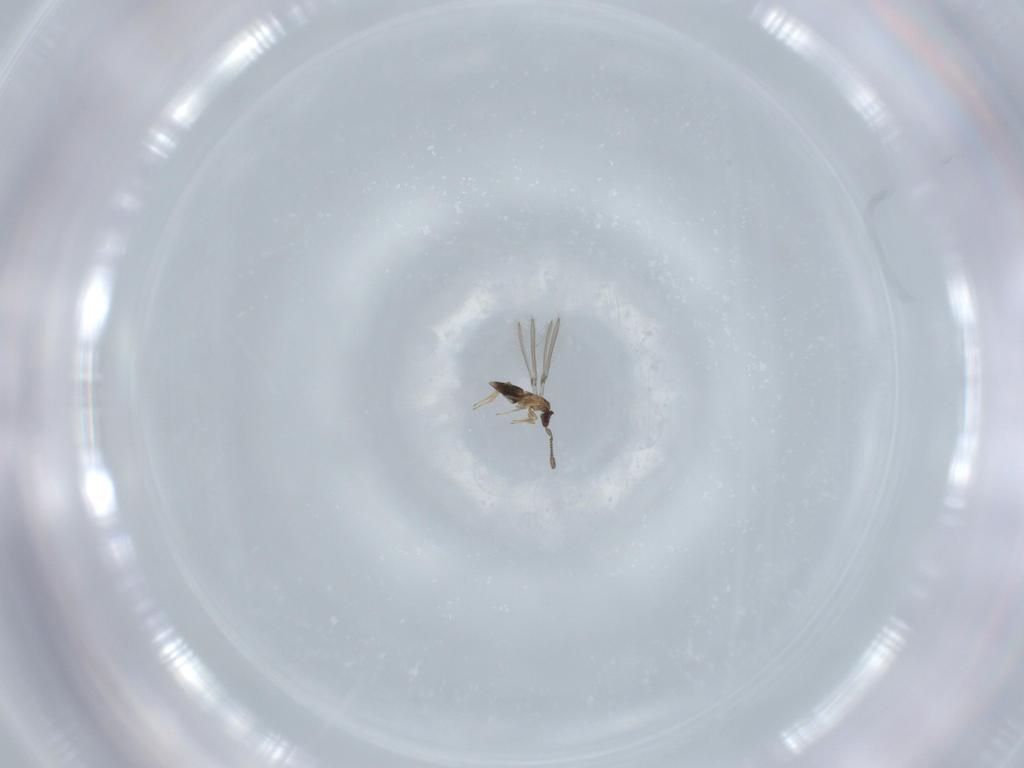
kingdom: Animalia
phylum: Arthropoda
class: Insecta
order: Hymenoptera
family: Mymaridae
